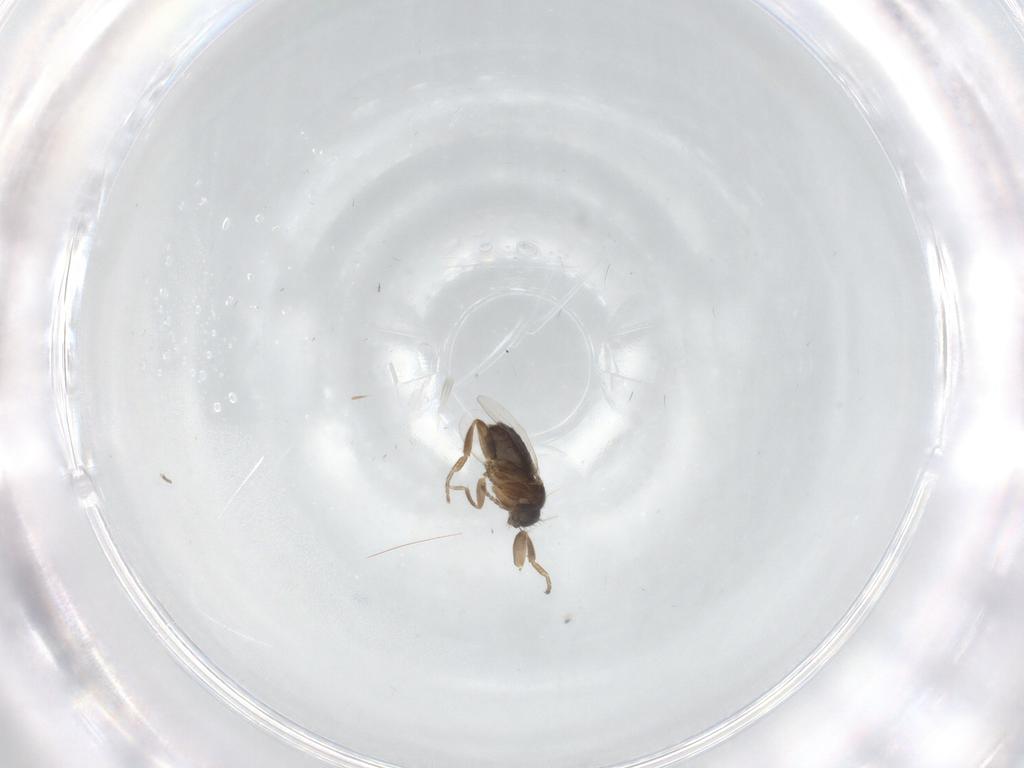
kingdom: Animalia
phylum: Arthropoda
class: Insecta
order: Diptera
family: Phoridae
